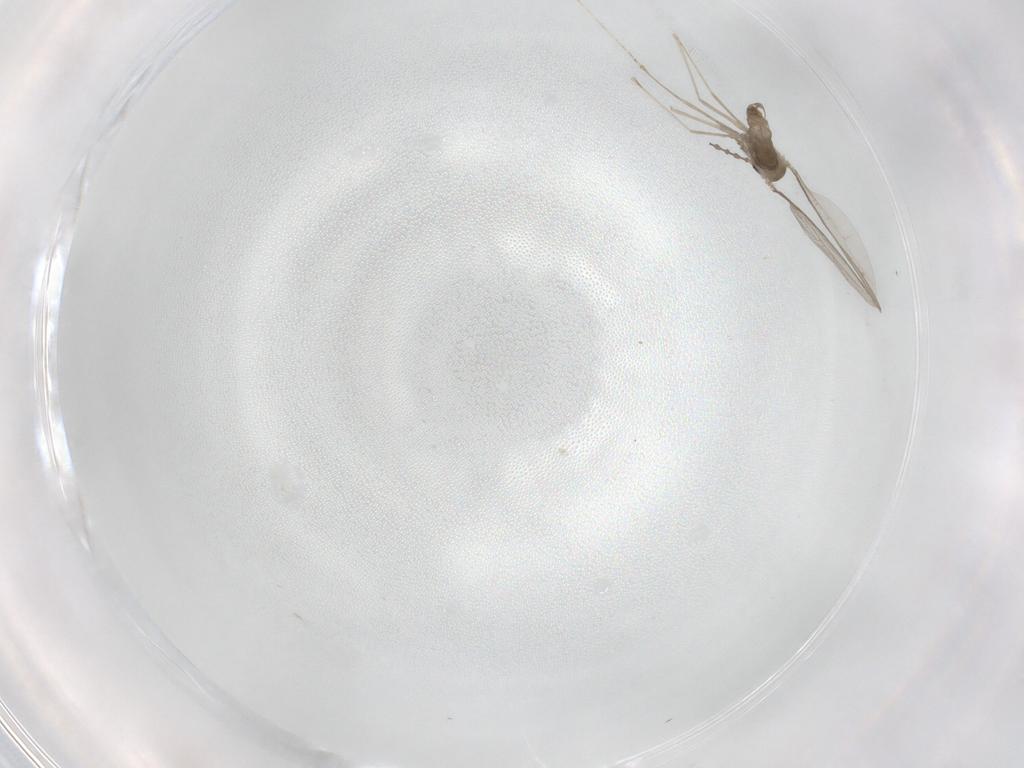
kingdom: Animalia
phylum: Arthropoda
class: Insecta
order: Diptera
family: Cecidomyiidae
